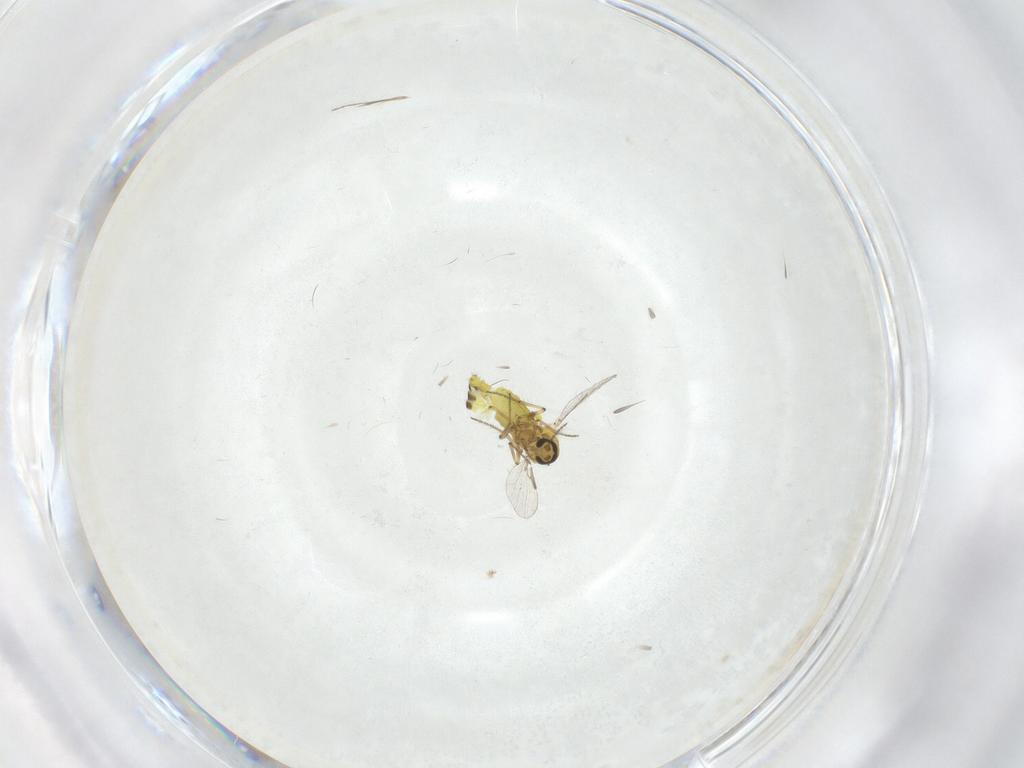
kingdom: Animalia
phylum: Arthropoda
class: Insecta
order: Diptera
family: Ceratopogonidae
